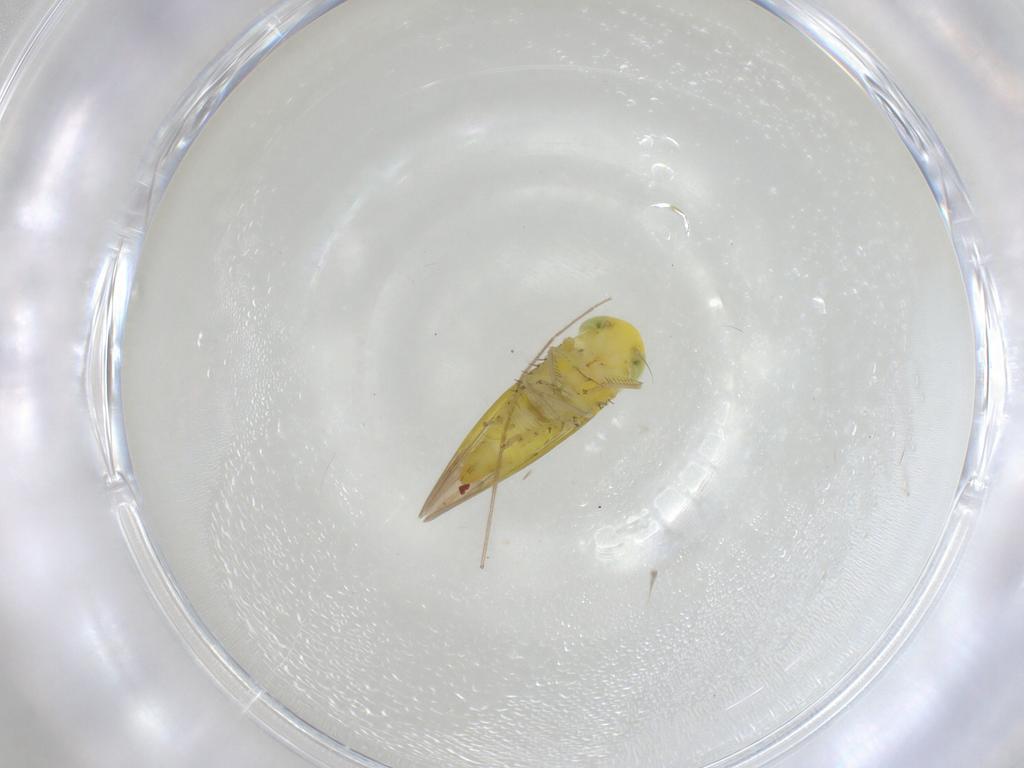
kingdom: Animalia
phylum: Arthropoda
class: Insecta
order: Hemiptera
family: Cicadellidae
